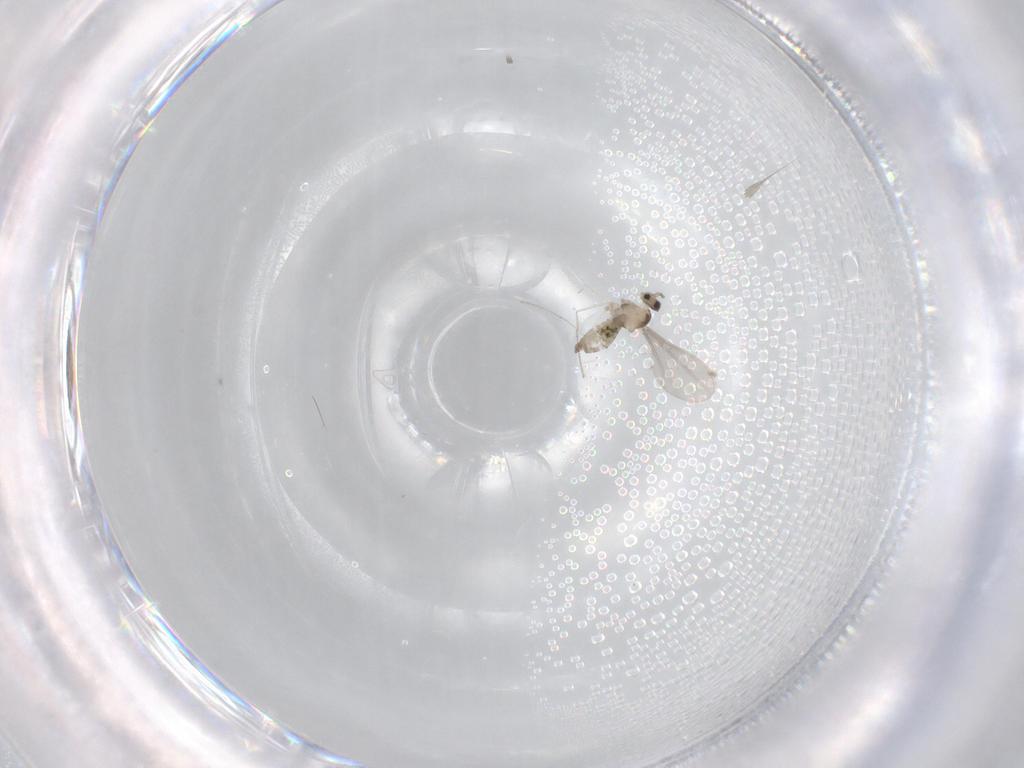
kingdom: Animalia
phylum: Arthropoda
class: Insecta
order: Diptera
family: Cecidomyiidae
